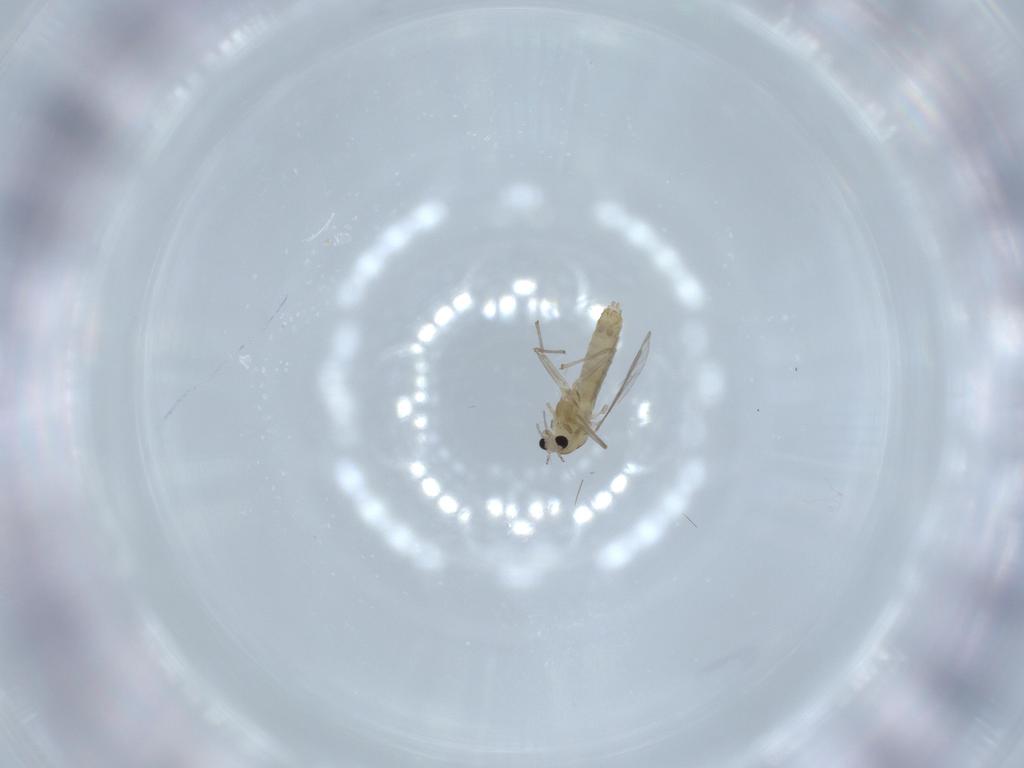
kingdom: Animalia
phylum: Arthropoda
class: Insecta
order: Diptera
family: Chironomidae
